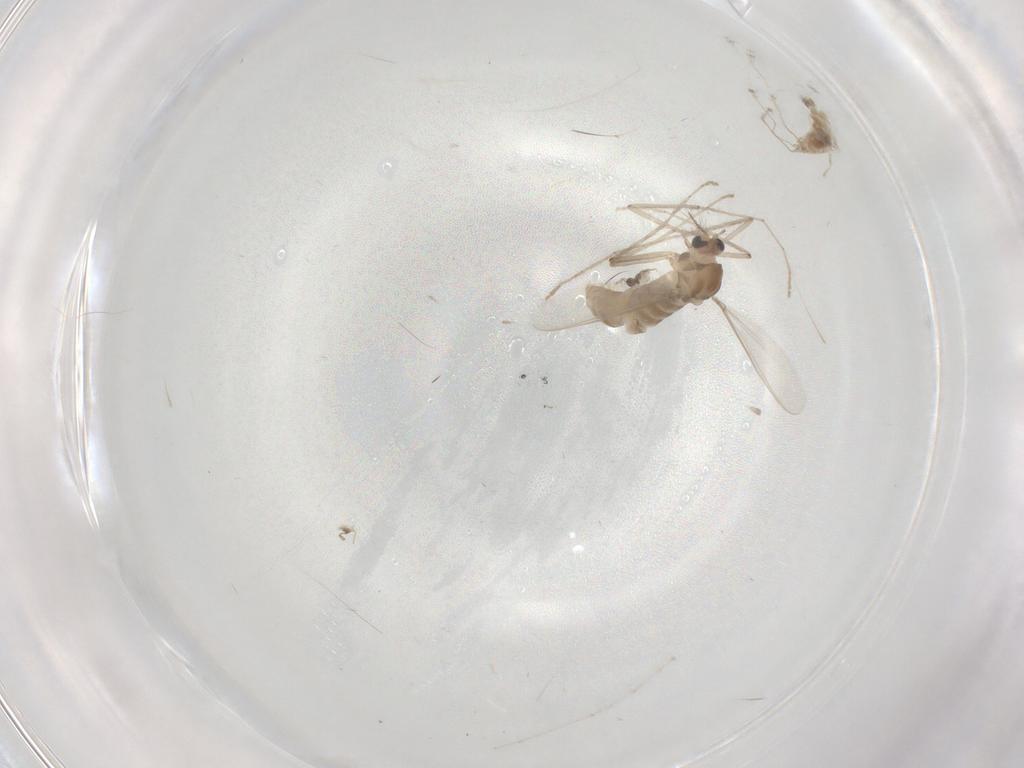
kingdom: Animalia
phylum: Arthropoda
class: Insecta
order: Diptera
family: Chironomidae
